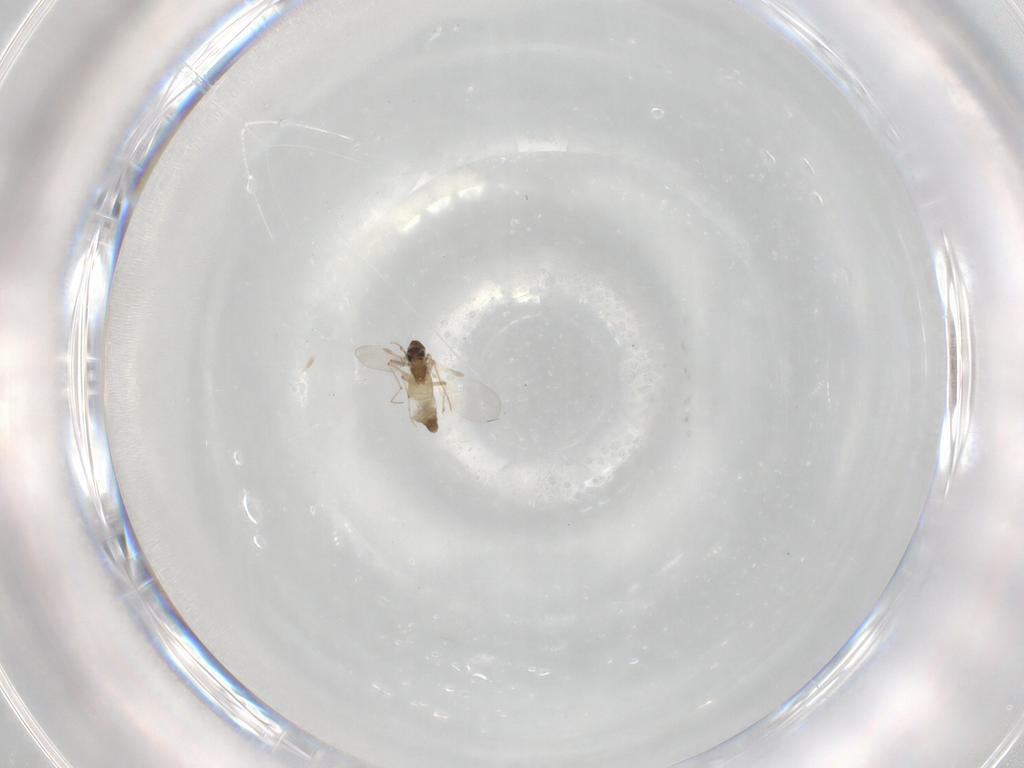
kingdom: Animalia
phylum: Arthropoda
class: Insecta
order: Diptera
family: Chironomidae
